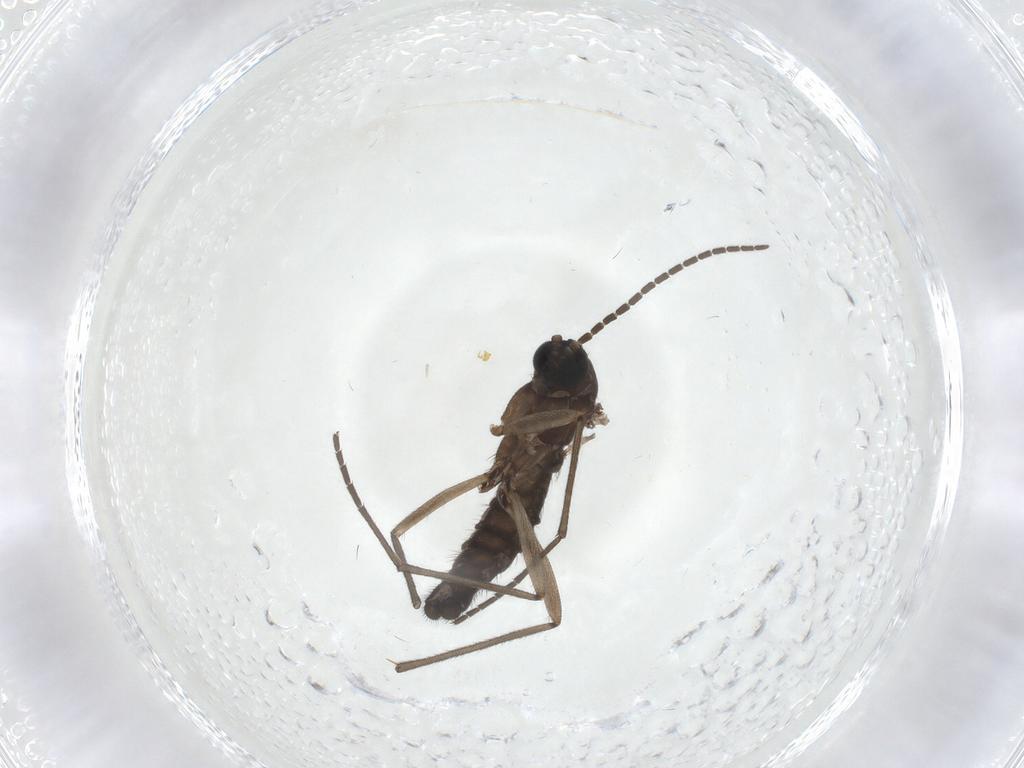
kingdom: Animalia
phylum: Arthropoda
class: Insecta
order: Diptera
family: Sciaridae
